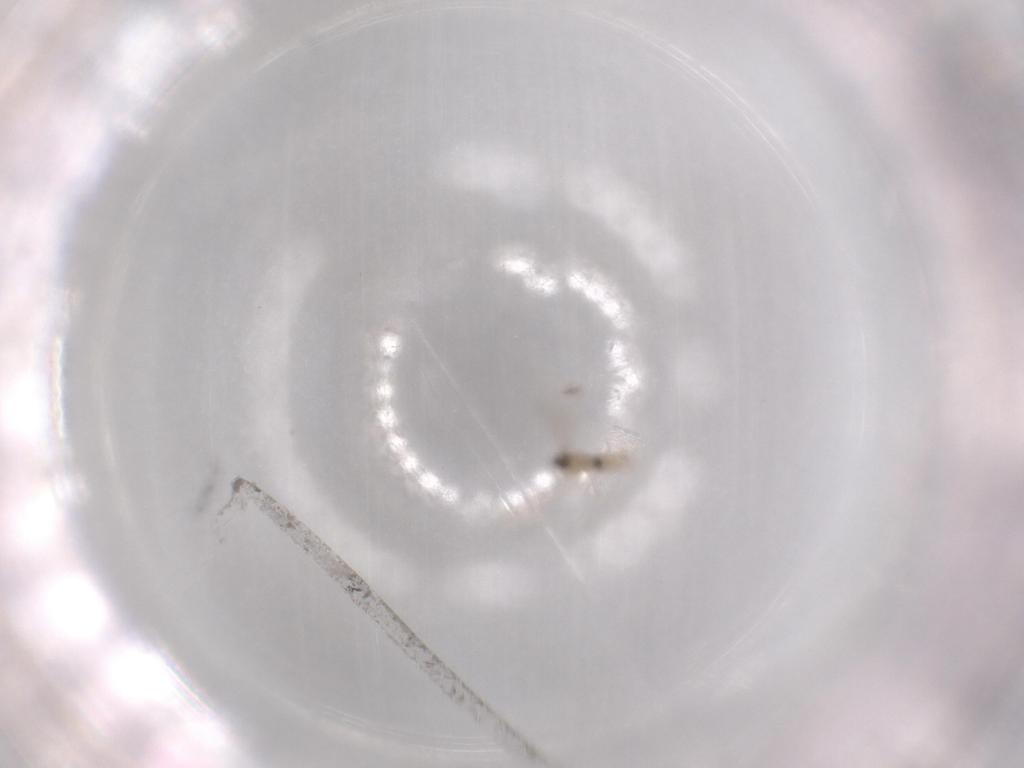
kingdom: Animalia
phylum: Arthropoda
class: Insecta
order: Diptera
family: Cecidomyiidae
